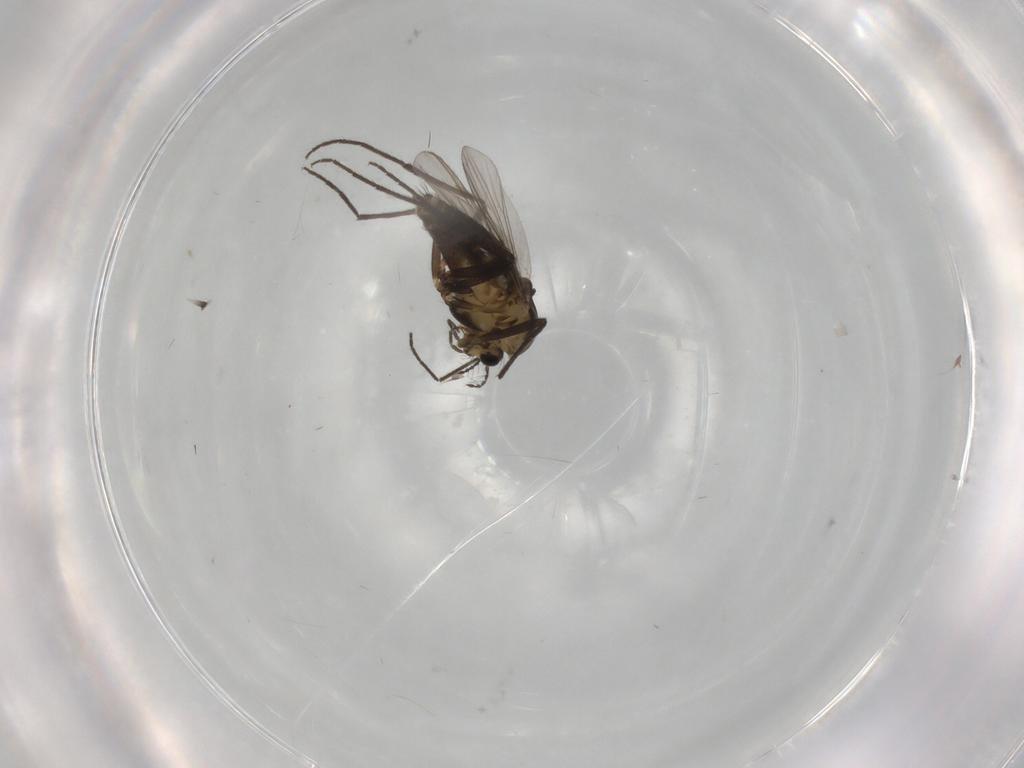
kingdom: Animalia
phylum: Arthropoda
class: Insecta
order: Diptera
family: Chironomidae
